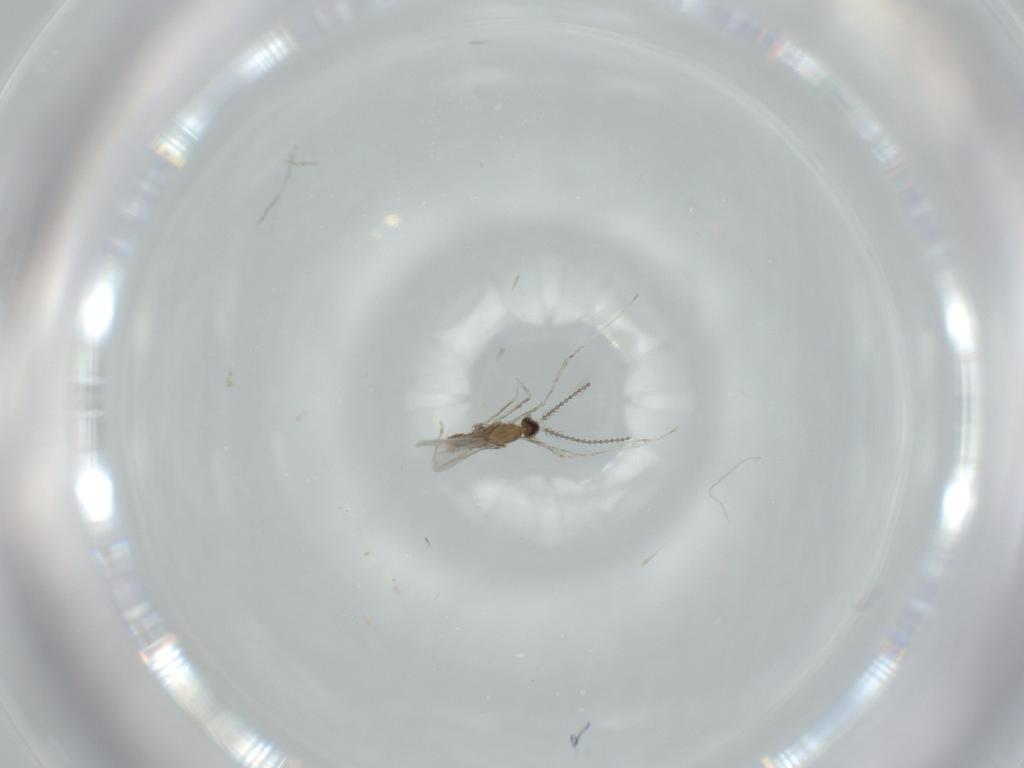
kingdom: Animalia
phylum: Arthropoda
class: Insecta
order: Diptera
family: Cecidomyiidae
